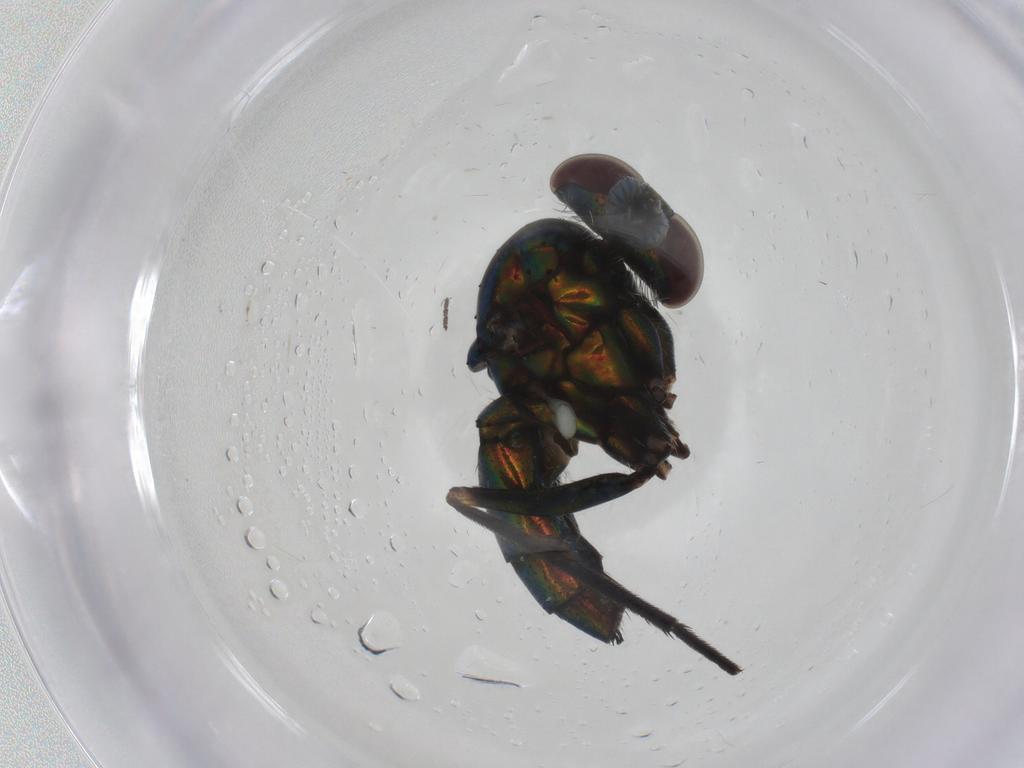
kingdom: Animalia
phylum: Arthropoda
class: Insecta
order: Diptera
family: Dolichopodidae
